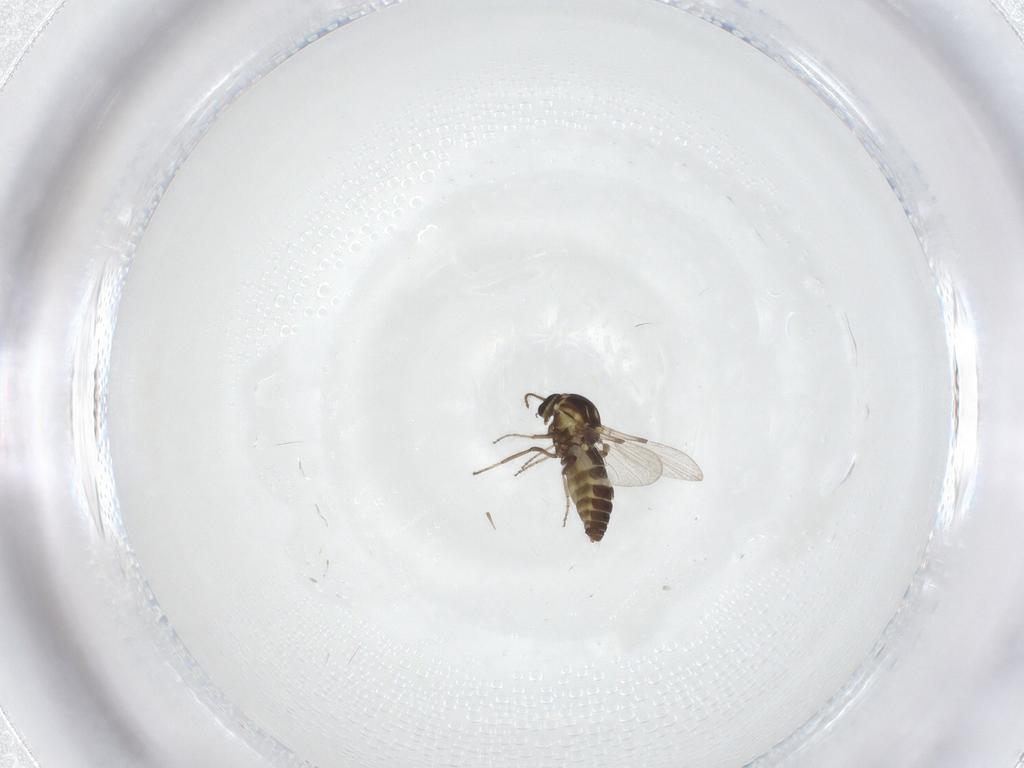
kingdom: Animalia
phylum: Arthropoda
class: Insecta
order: Diptera
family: Ceratopogonidae
